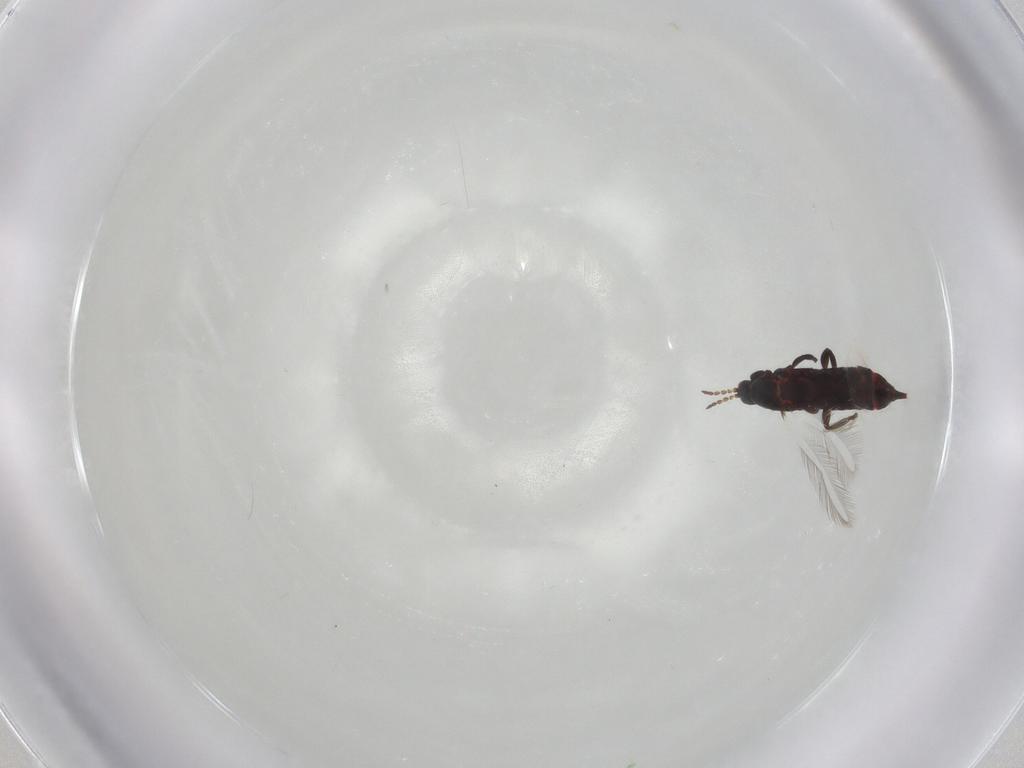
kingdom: Animalia
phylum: Arthropoda
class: Insecta
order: Thysanoptera
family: Phlaeothripidae
